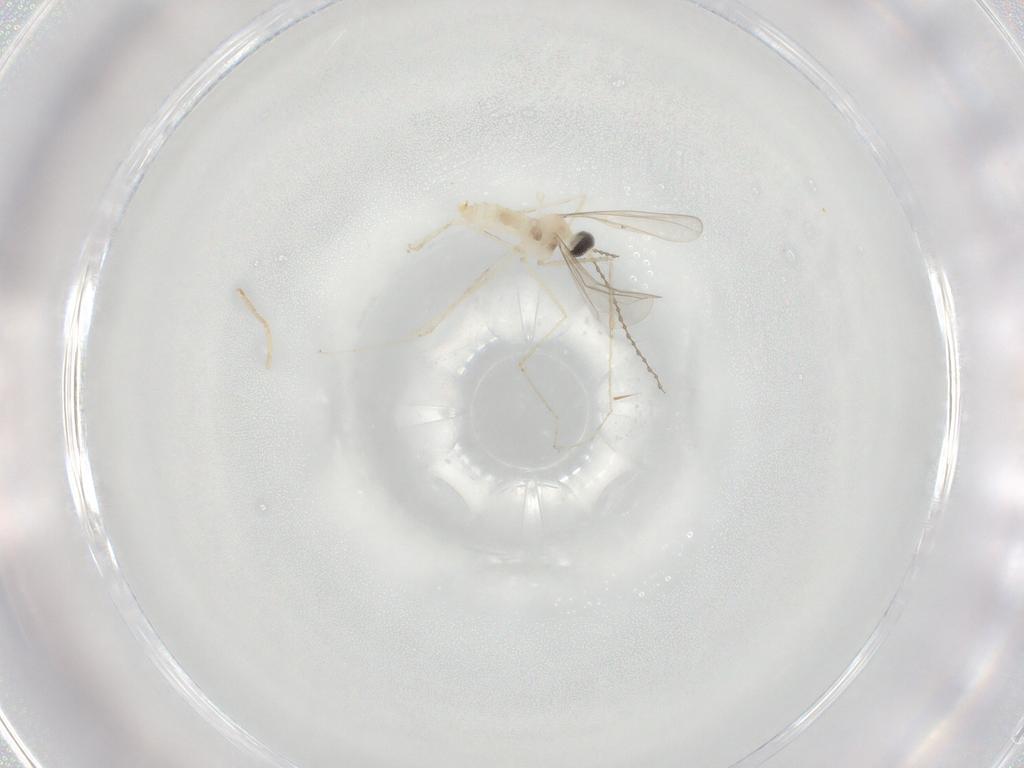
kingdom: Animalia
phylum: Arthropoda
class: Insecta
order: Diptera
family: Cecidomyiidae
